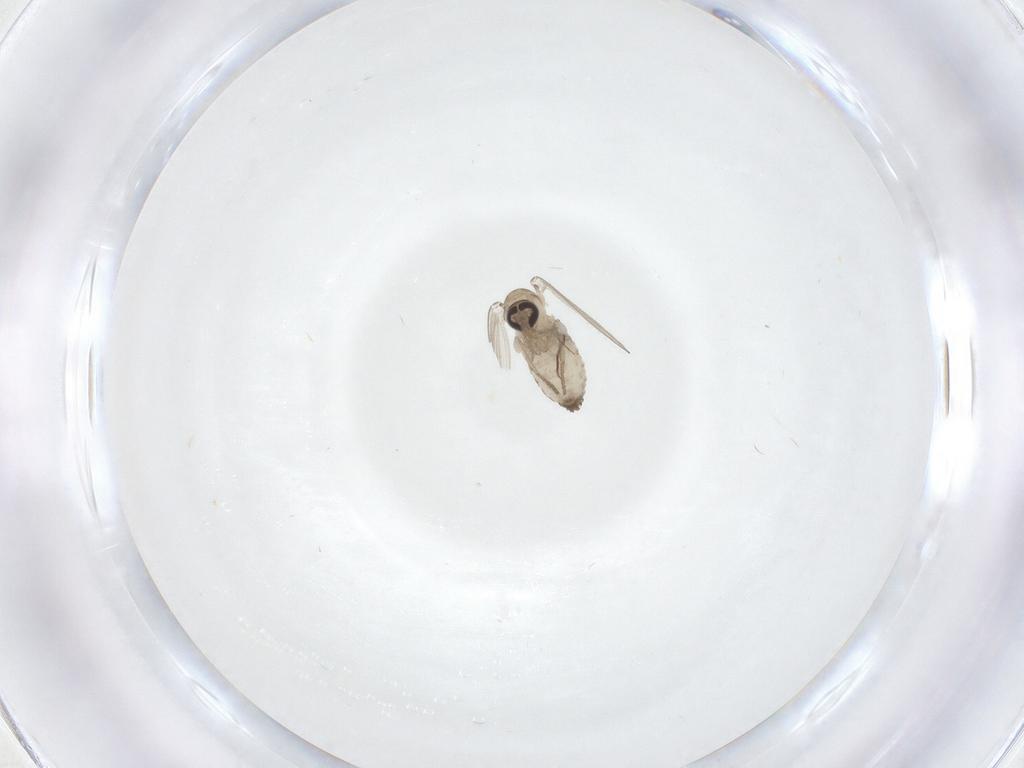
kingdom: Animalia
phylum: Arthropoda
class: Insecta
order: Diptera
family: Psychodidae
